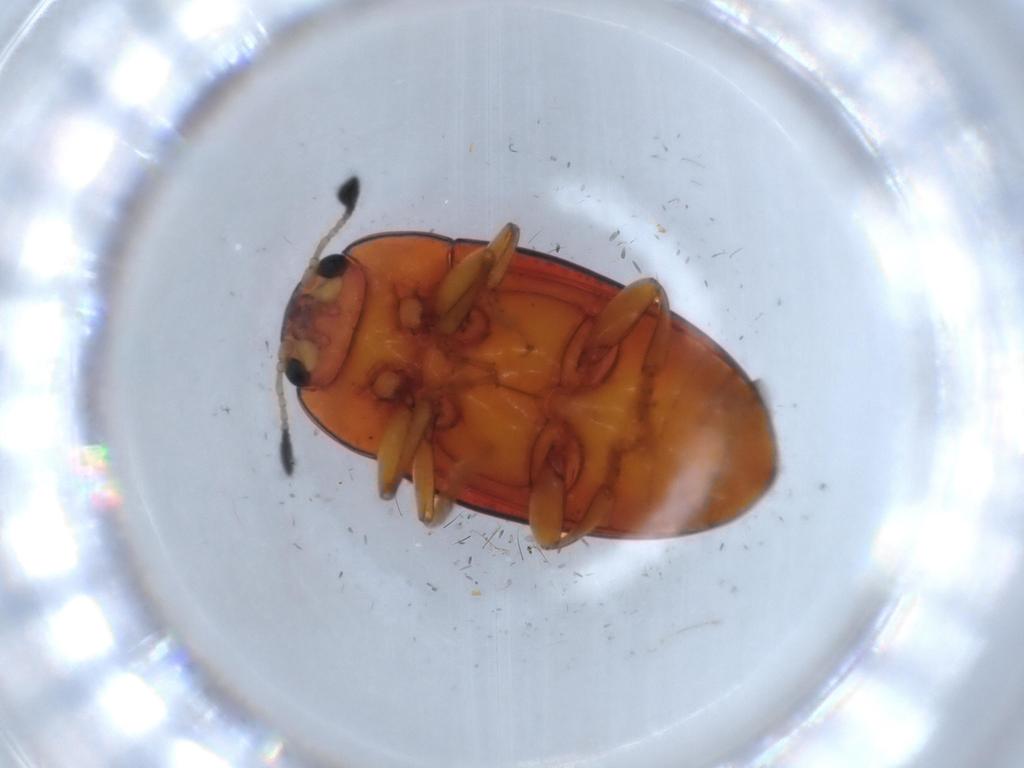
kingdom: Animalia
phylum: Arthropoda
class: Insecta
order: Coleoptera
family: Erotylidae
